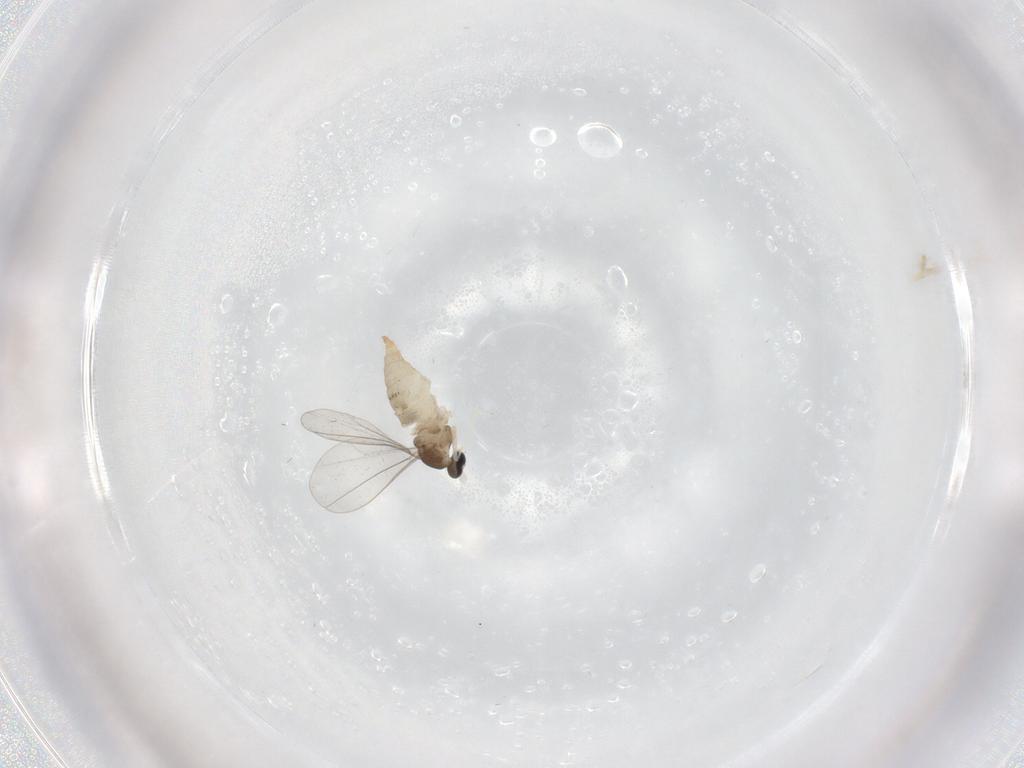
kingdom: Animalia
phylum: Arthropoda
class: Insecta
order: Diptera
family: Cecidomyiidae
